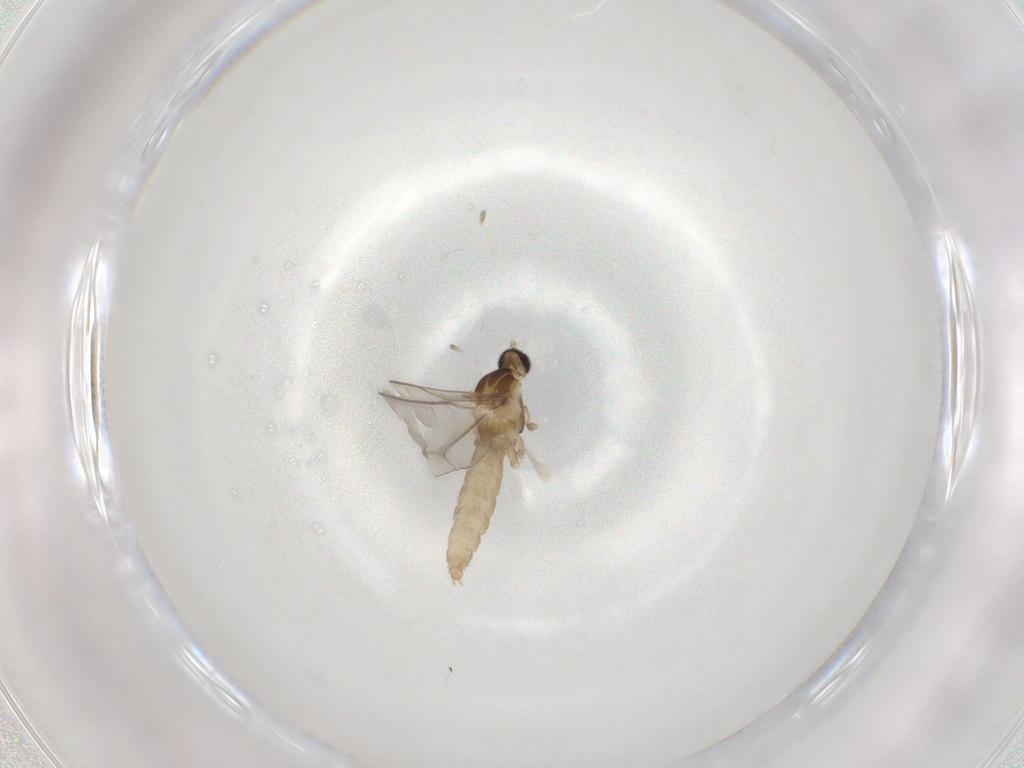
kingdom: Animalia
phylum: Arthropoda
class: Insecta
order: Diptera
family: Cecidomyiidae
